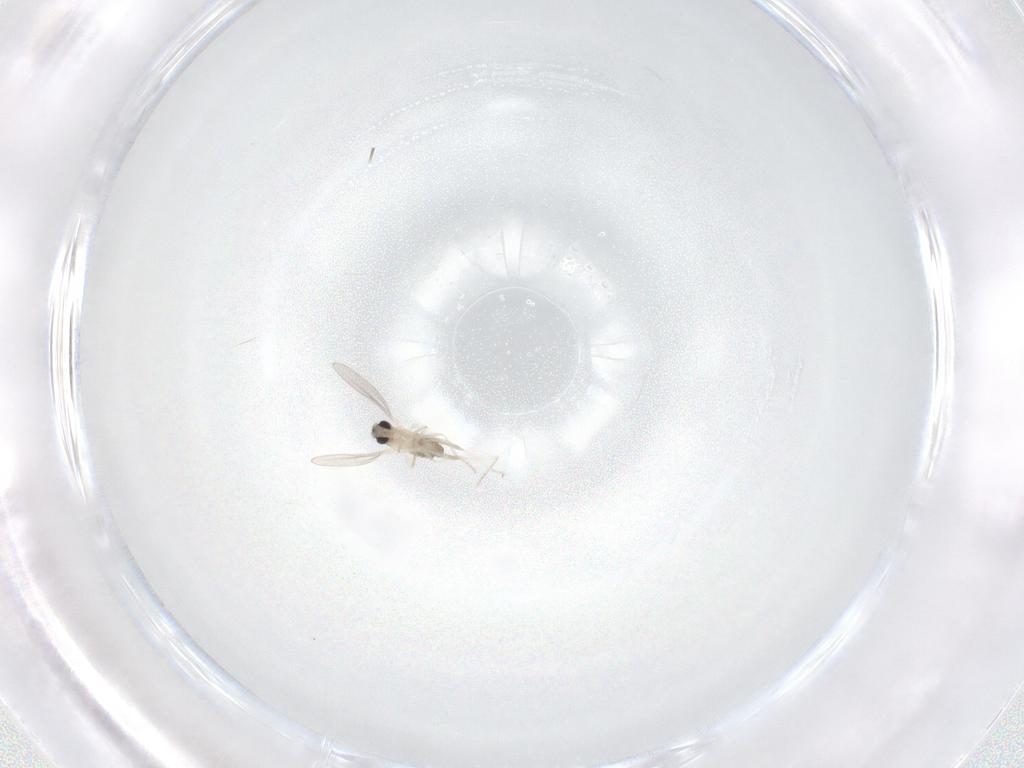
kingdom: Animalia
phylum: Arthropoda
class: Insecta
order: Diptera
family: Cecidomyiidae
